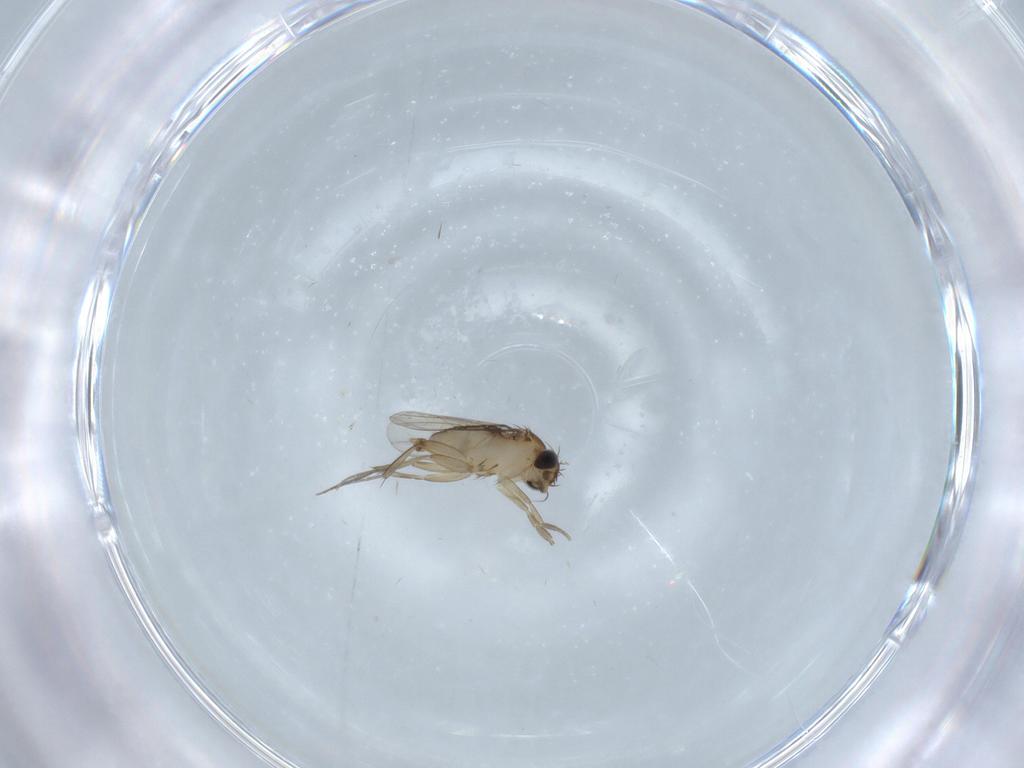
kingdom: Animalia
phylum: Arthropoda
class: Insecta
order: Diptera
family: Phoridae
